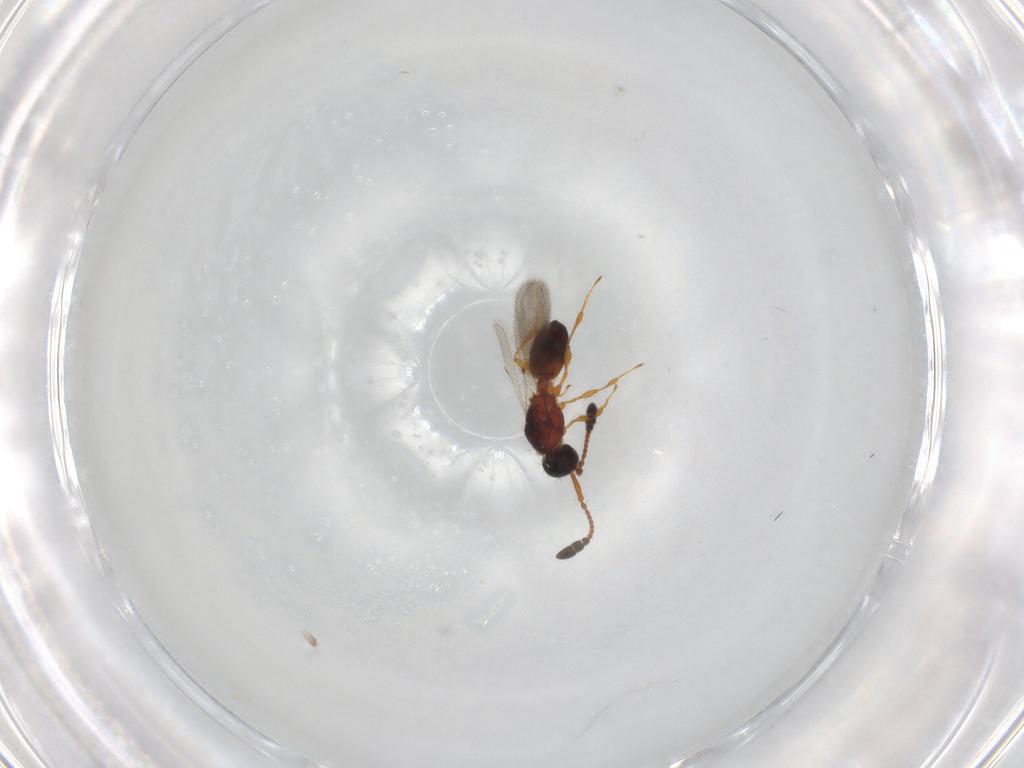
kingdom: Animalia
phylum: Arthropoda
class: Insecta
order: Hymenoptera
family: Diapriidae
